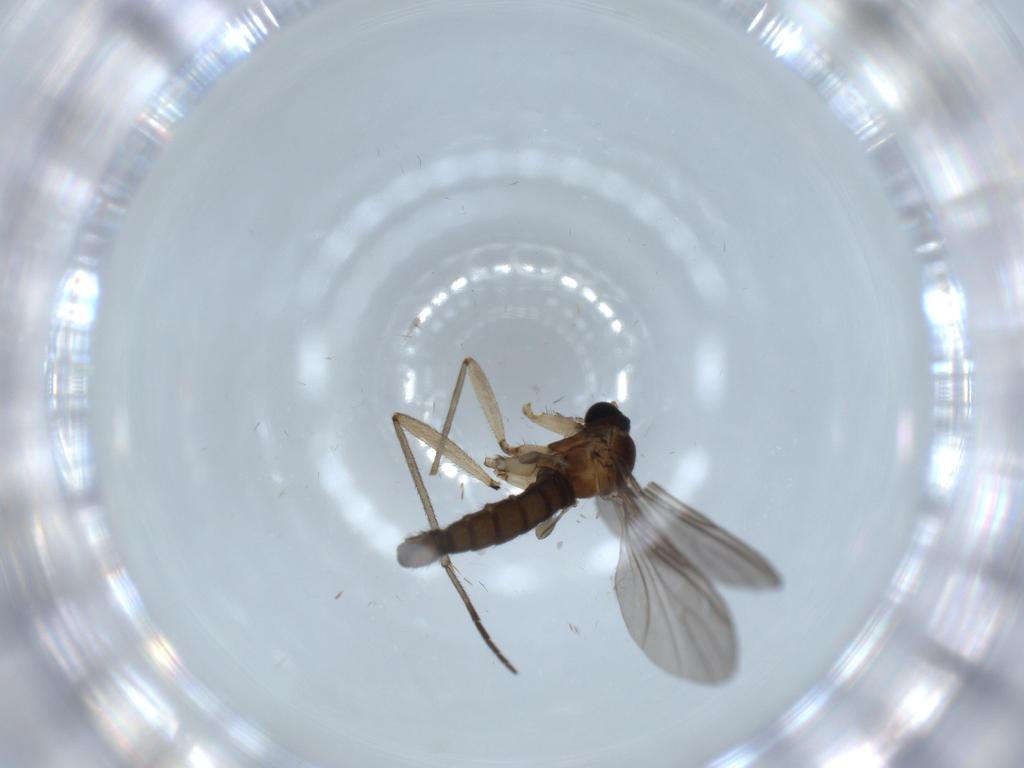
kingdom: Animalia
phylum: Arthropoda
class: Insecta
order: Diptera
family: Sciaridae
